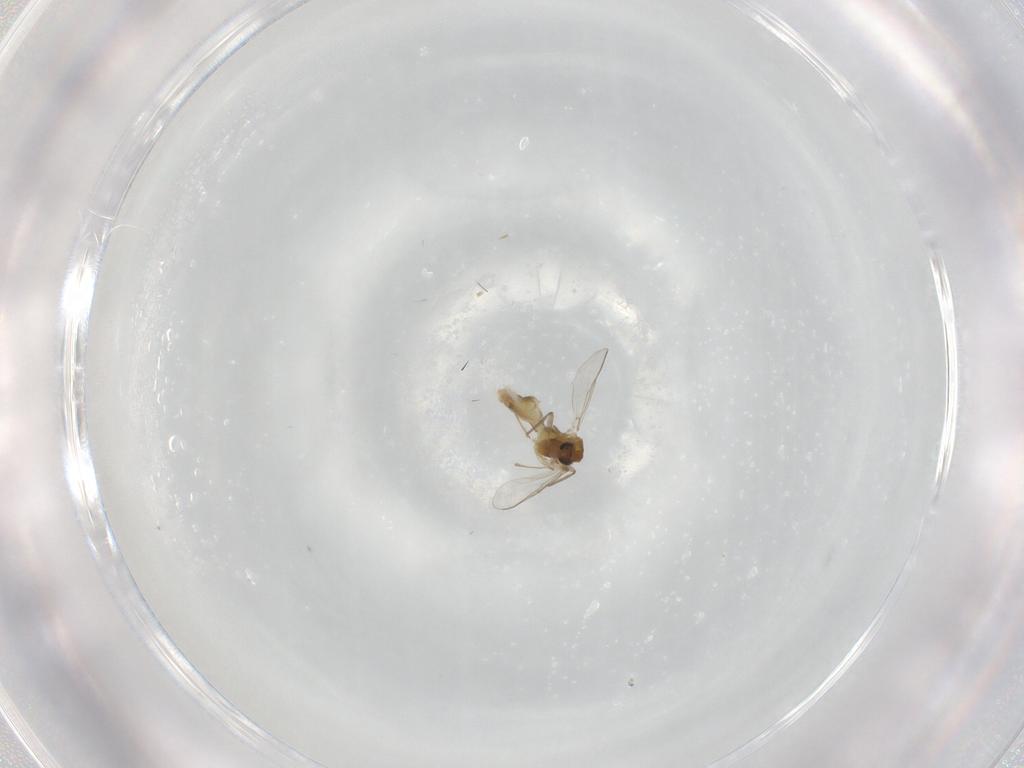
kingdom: Animalia
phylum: Arthropoda
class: Insecta
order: Diptera
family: Chironomidae
